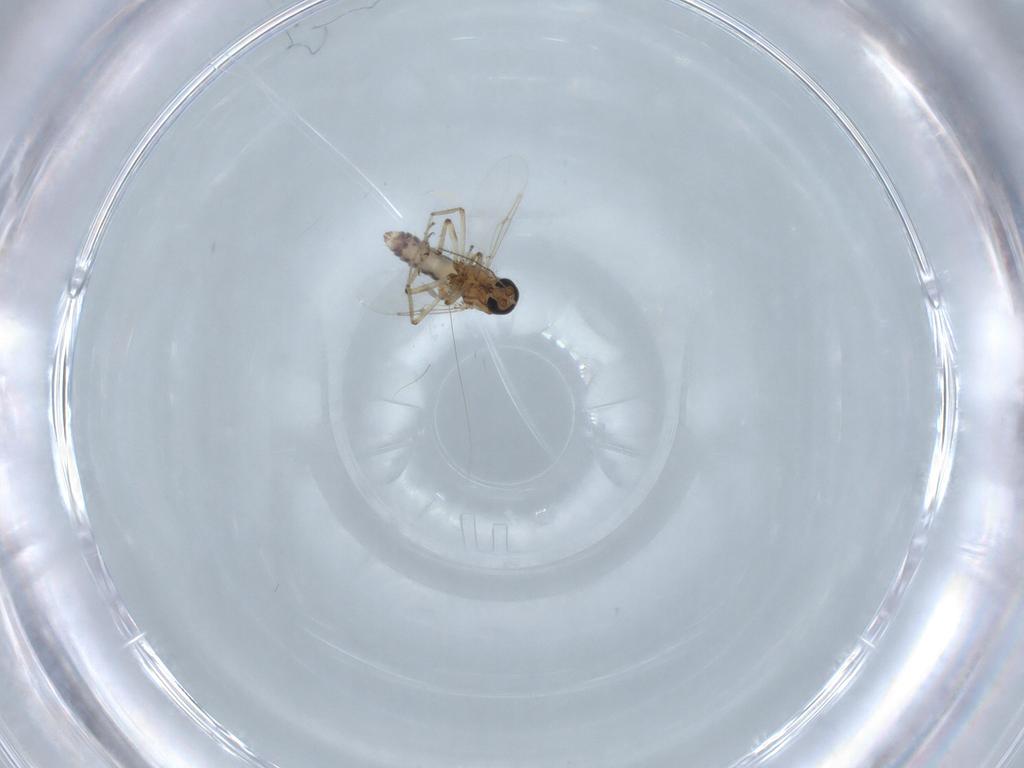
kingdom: Animalia
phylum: Arthropoda
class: Insecta
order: Diptera
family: Ceratopogonidae
